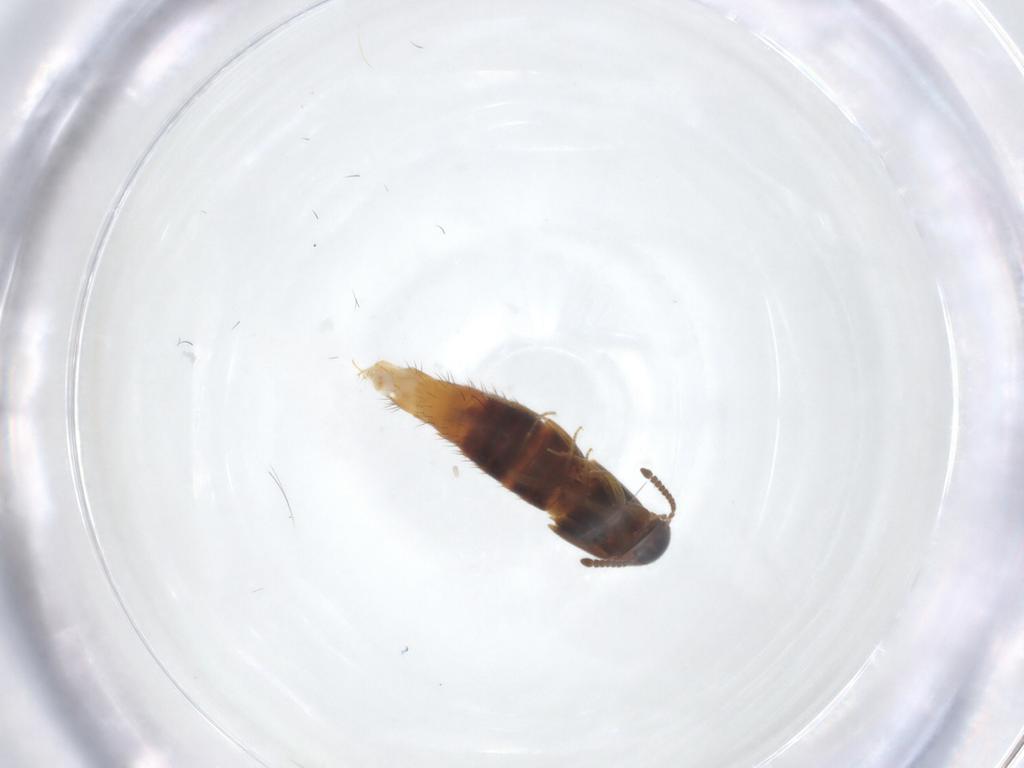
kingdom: Animalia
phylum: Arthropoda
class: Insecta
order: Coleoptera
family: Staphylinidae
